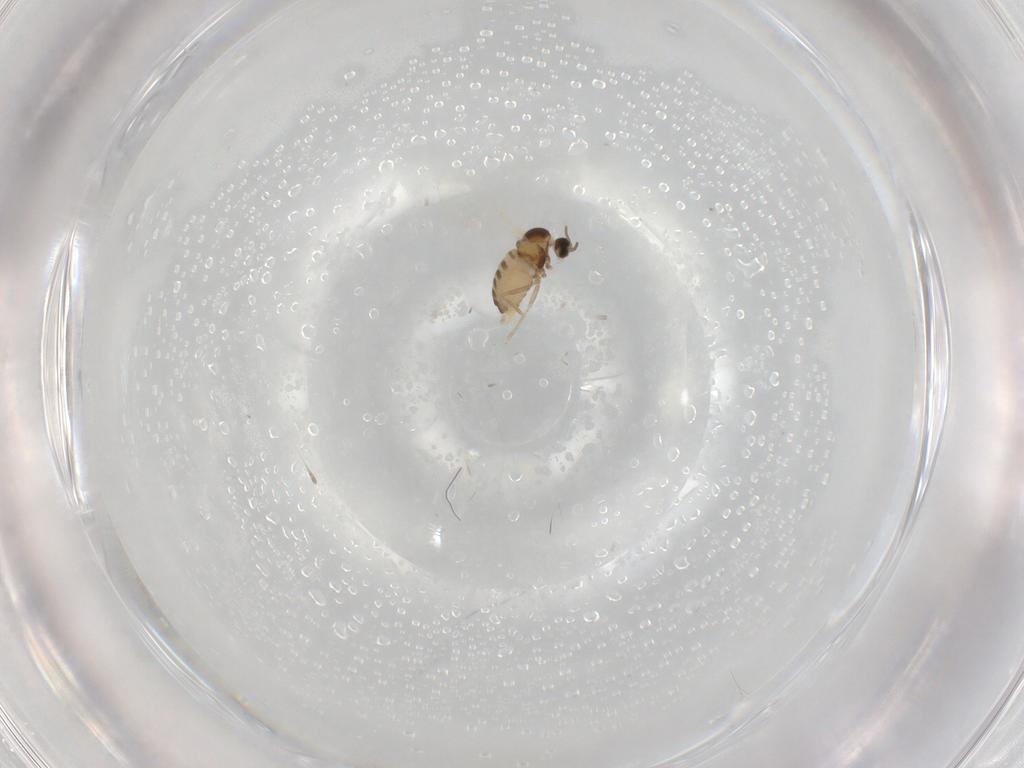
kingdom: Animalia
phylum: Arthropoda
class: Insecta
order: Diptera
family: Cecidomyiidae
